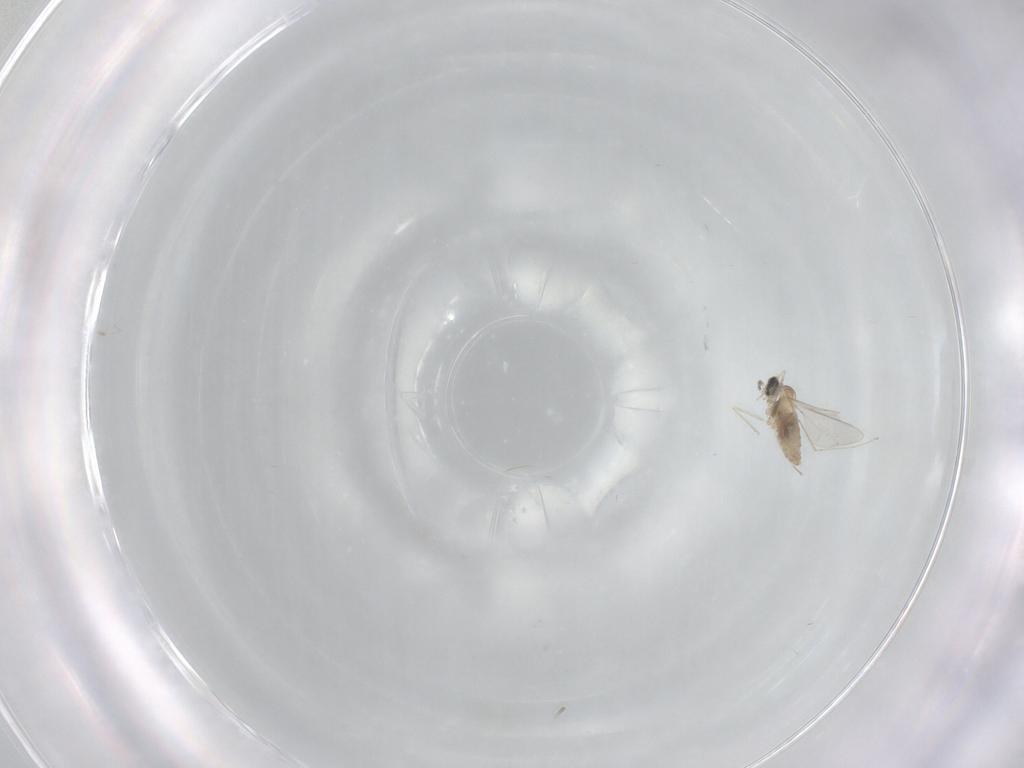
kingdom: Animalia
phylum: Arthropoda
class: Insecta
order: Diptera
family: Cecidomyiidae
